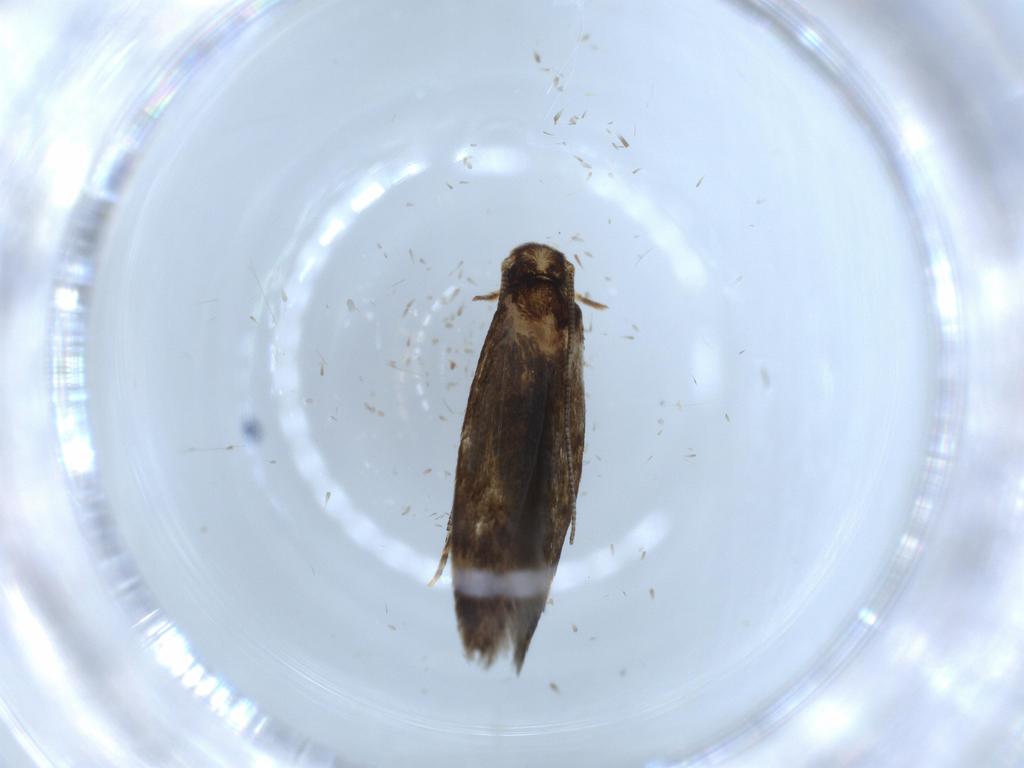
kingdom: Animalia
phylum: Arthropoda
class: Insecta
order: Lepidoptera
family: Tineidae
